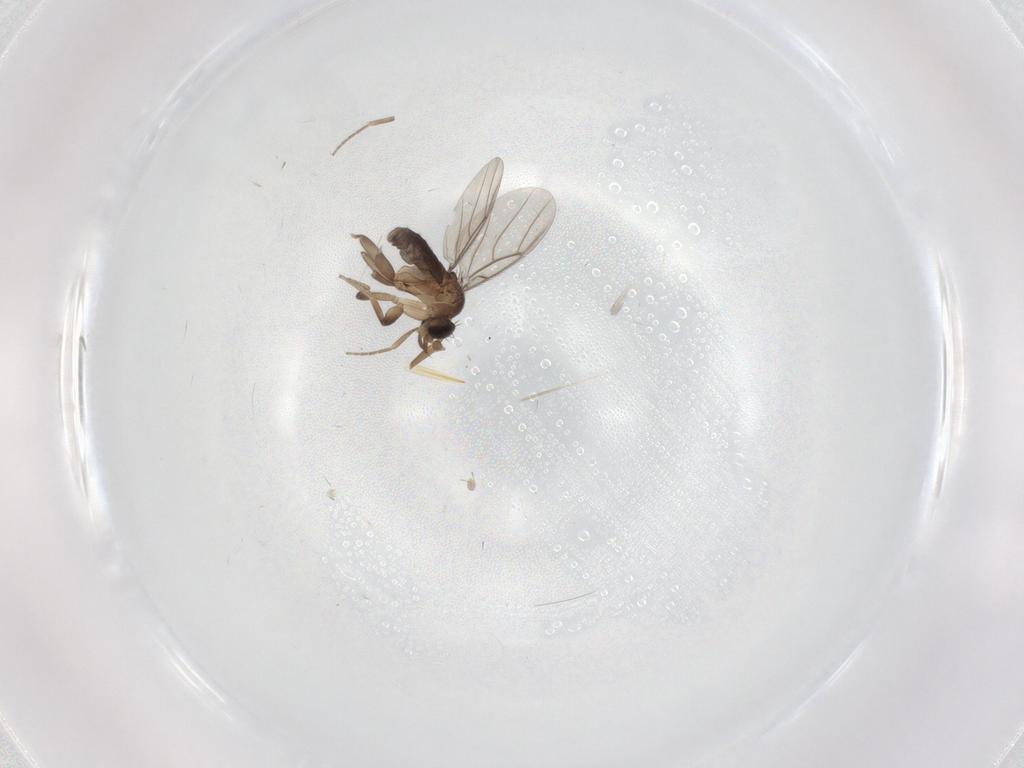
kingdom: Animalia
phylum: Arthropoda
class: Insecta
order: Diptera
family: Phoridae
